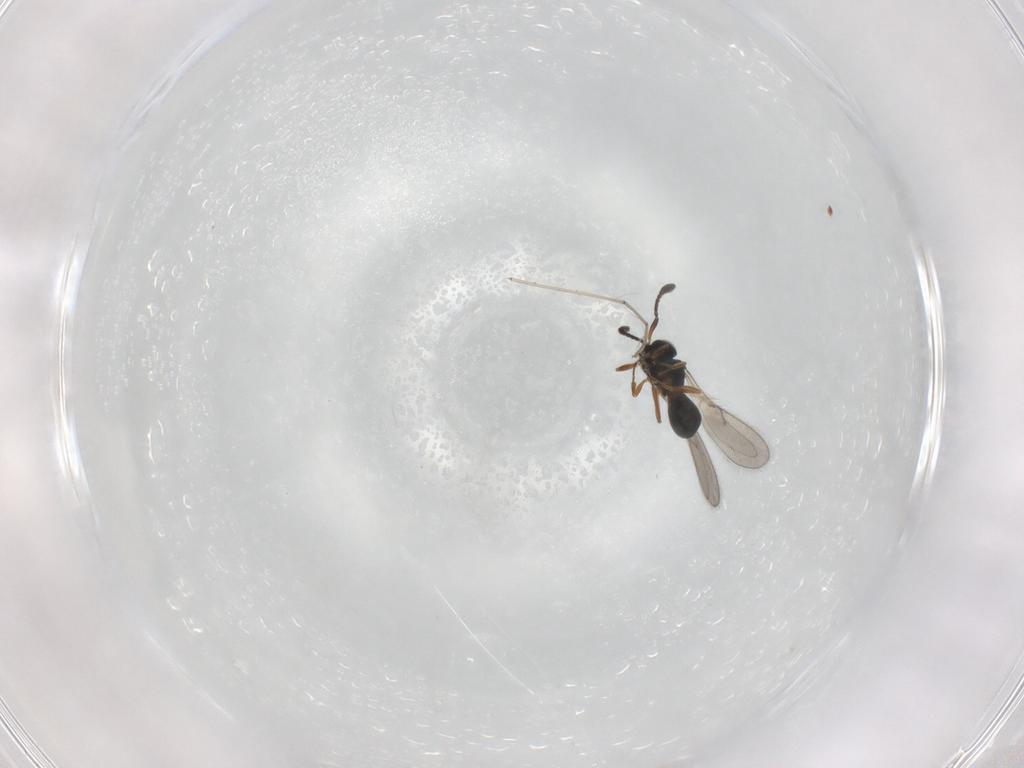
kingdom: Animalia
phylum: Arthropoda
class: Insecta
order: Hymenoptera
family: Scelionidae
